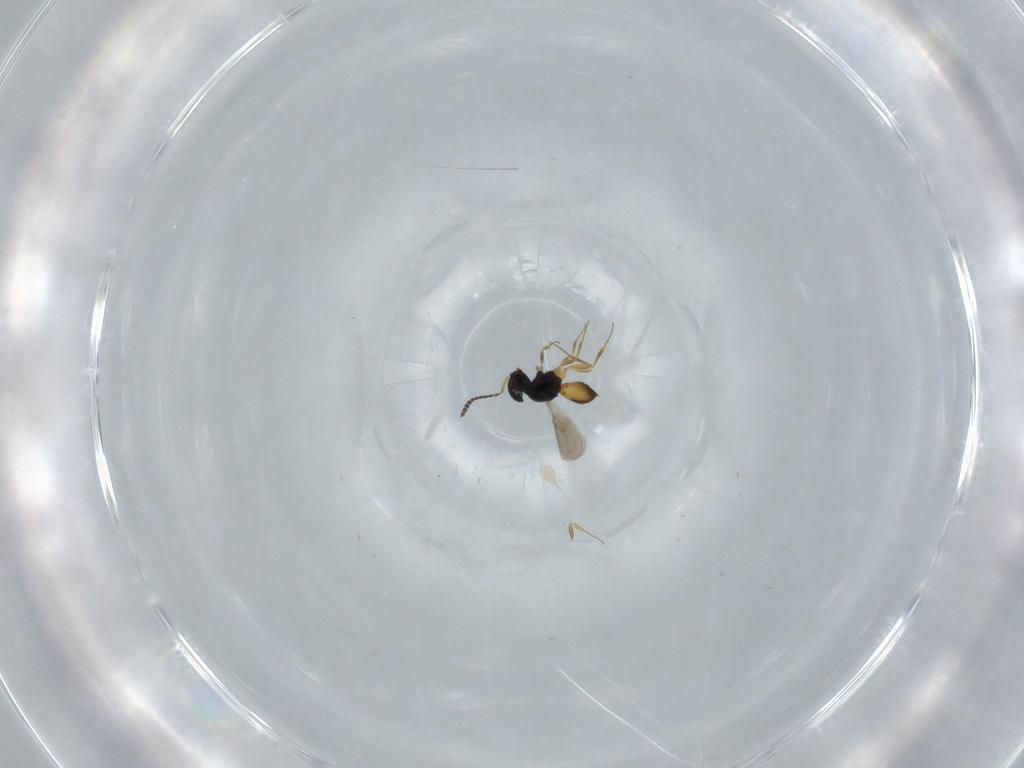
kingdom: Animalia
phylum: Arthropoda
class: Insecta
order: Hymenoptera
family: Scelionidae
